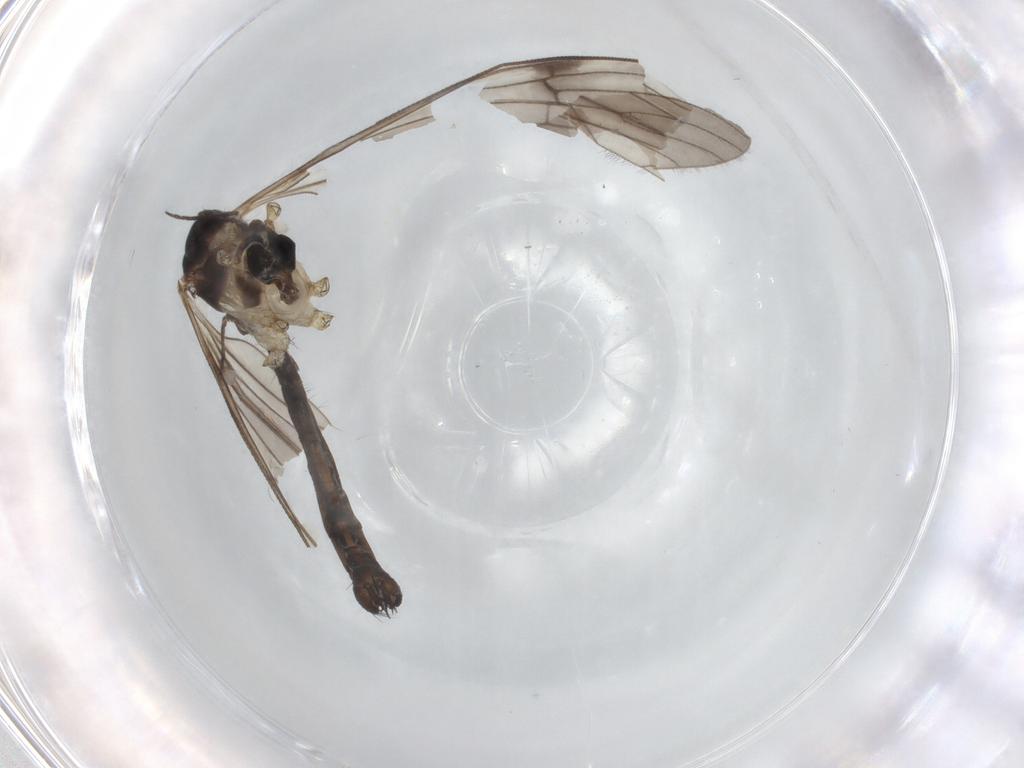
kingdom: Animalia
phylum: Arthropoda
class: Insecta
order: Diptera
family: Limoniidae
